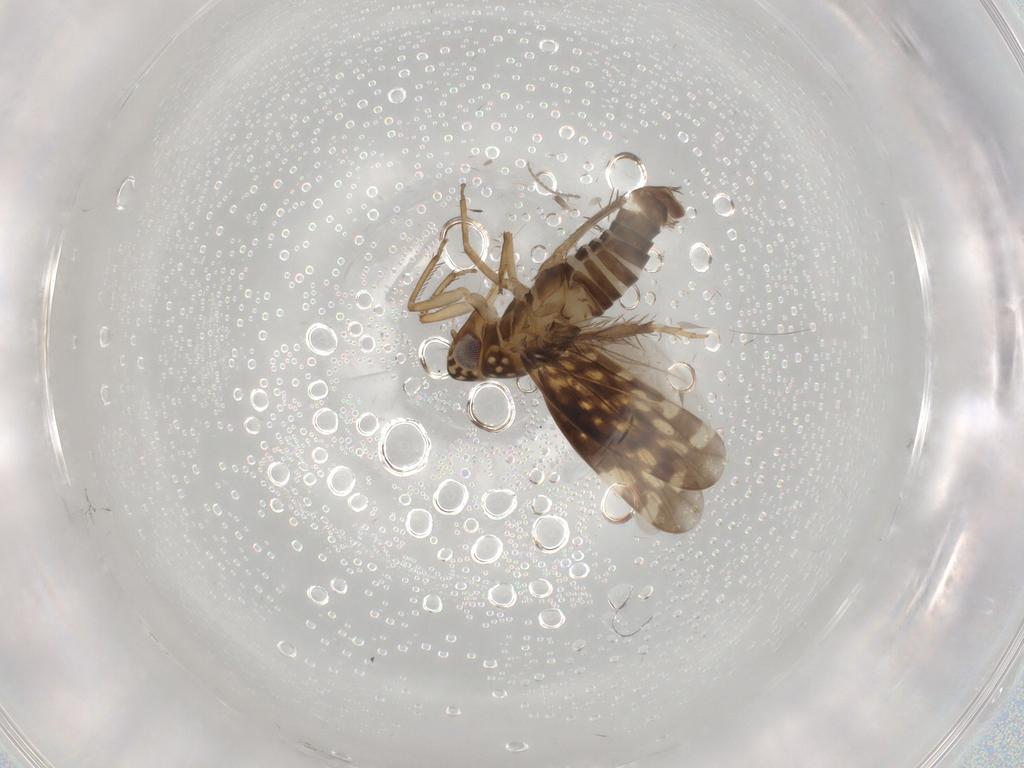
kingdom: Animalia
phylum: Arthropoda
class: Insecta
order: Hemiptera
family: Cicadellidae
